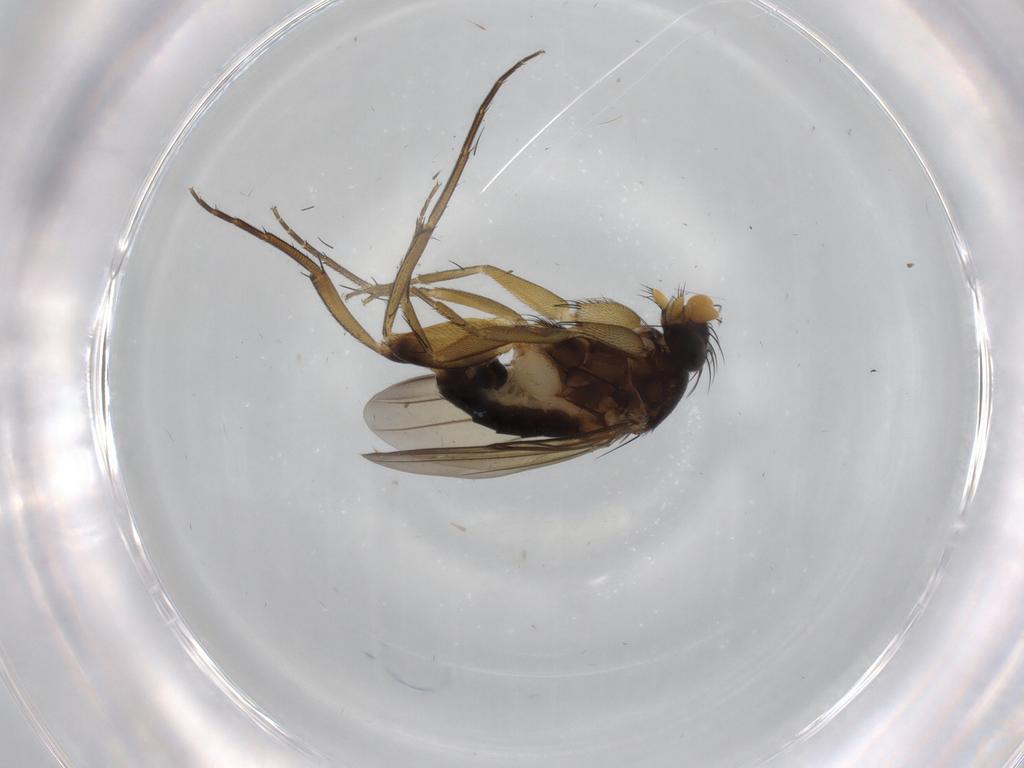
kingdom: Animalia
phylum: Arthropoda
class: Insecta
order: Diptera
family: Phoridae
